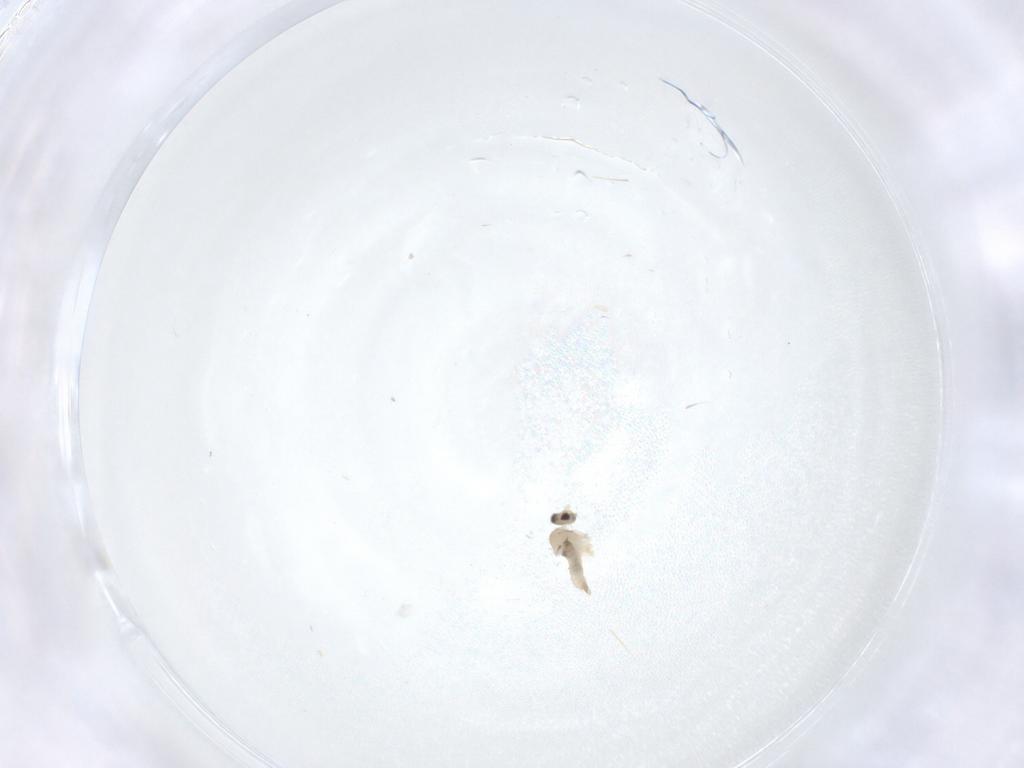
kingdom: Animalia
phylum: Arthropoda
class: Insecta
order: Diptera
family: Cecidomyiidae
